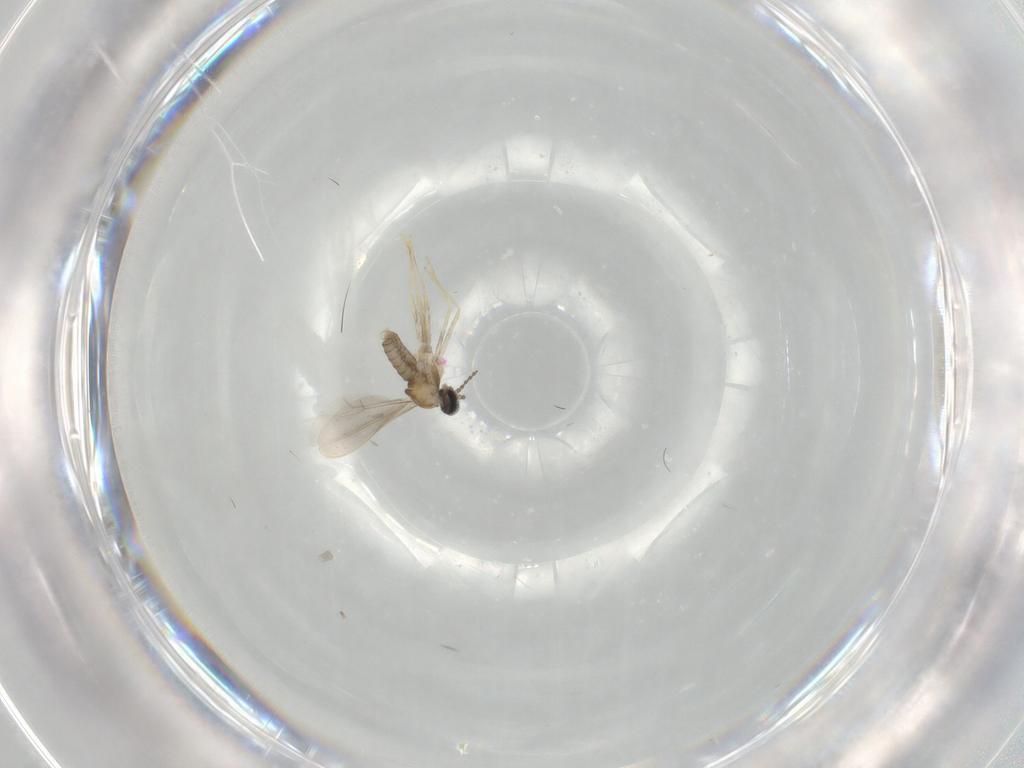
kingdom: Animalia
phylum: Arthropoda
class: Insecta
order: Diptera
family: Cecidomyiidae
